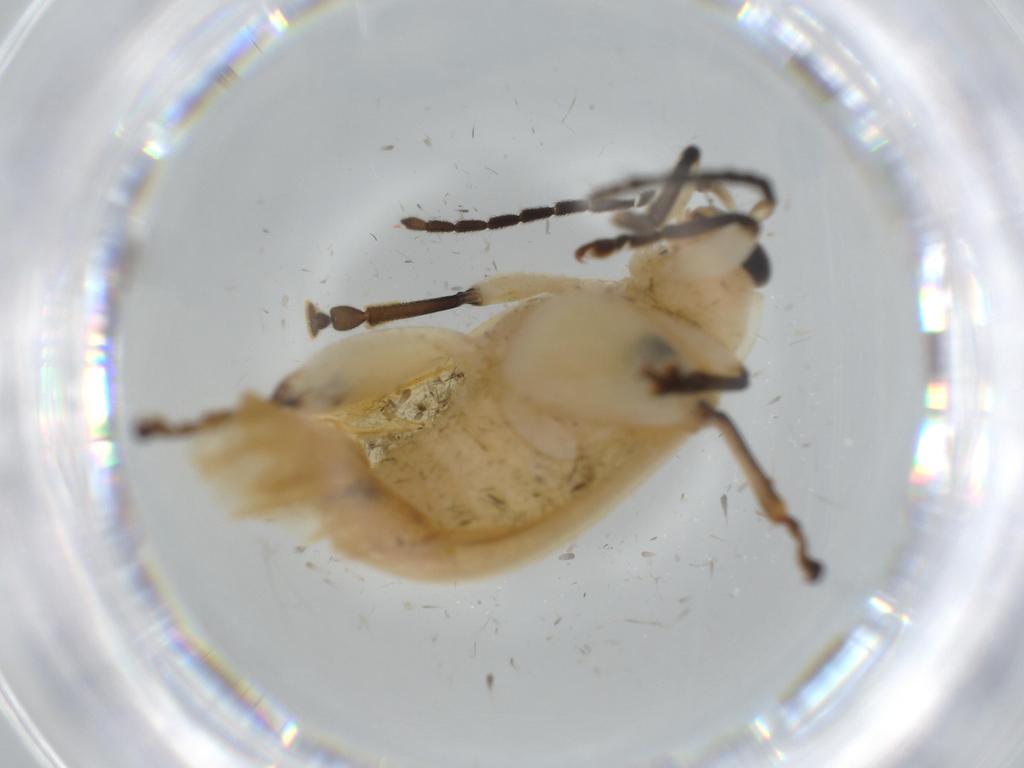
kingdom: Animalia
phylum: Arthropoda
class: Insecta
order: Coleoptera
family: Chrysomelidae
